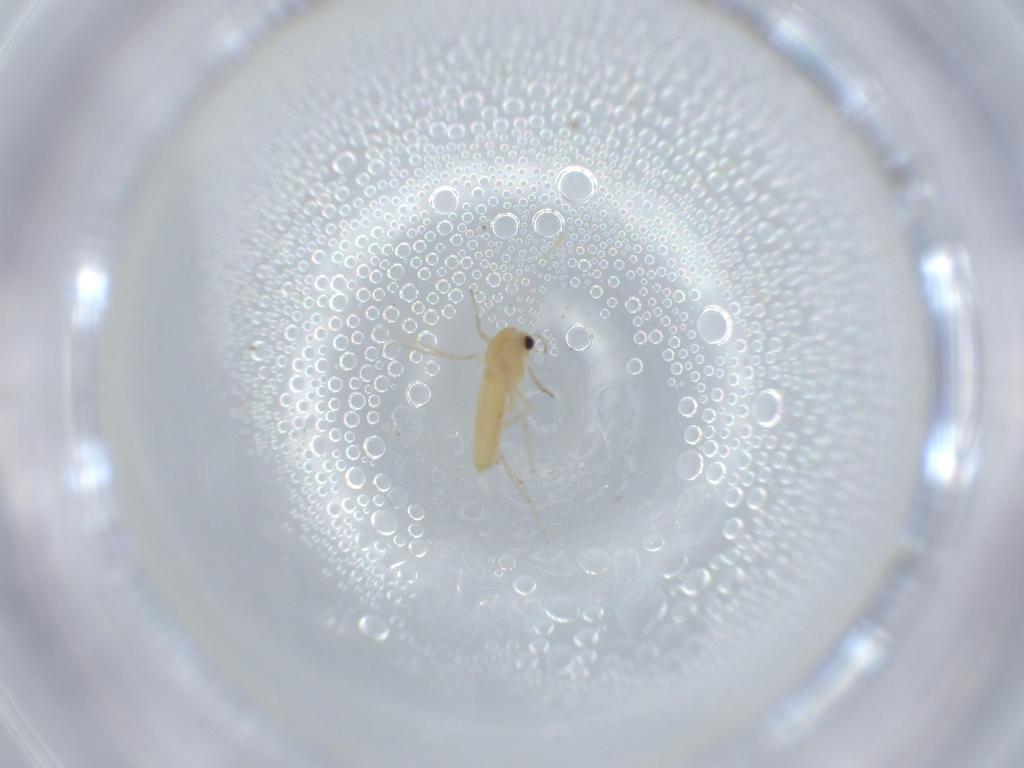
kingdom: Animalia
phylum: Arthropoda
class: Insecta
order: Diptera
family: Chironomidae
